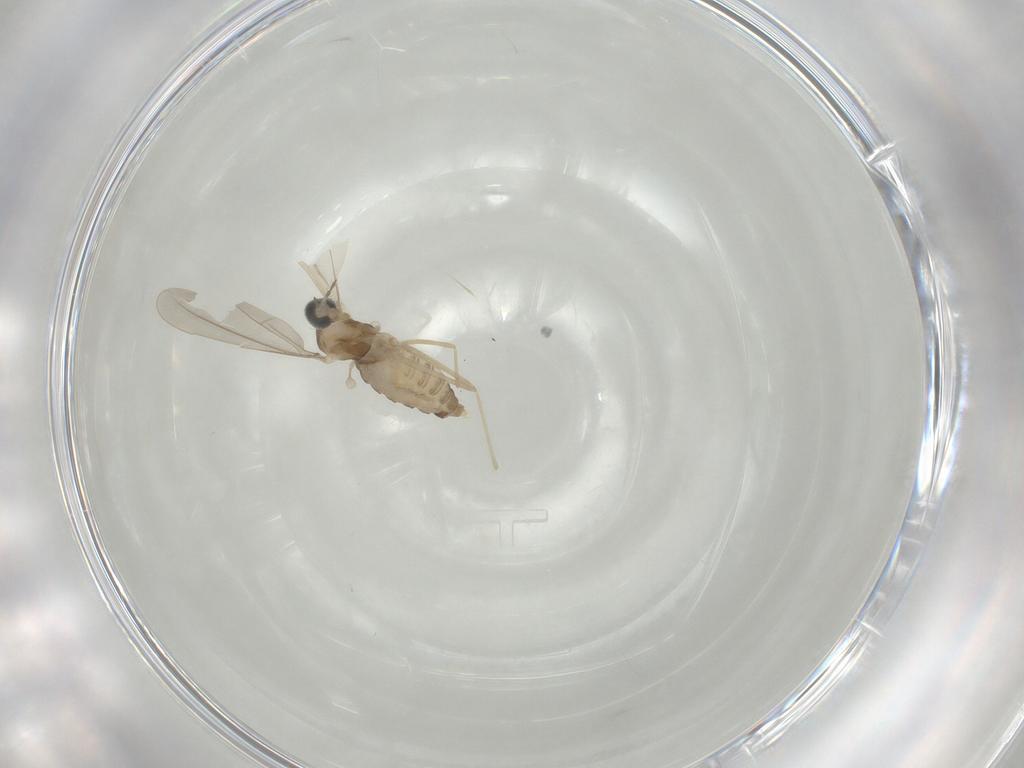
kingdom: Animalia
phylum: Arthropoda
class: Insecta
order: Diptera
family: Cecidomyiidae
